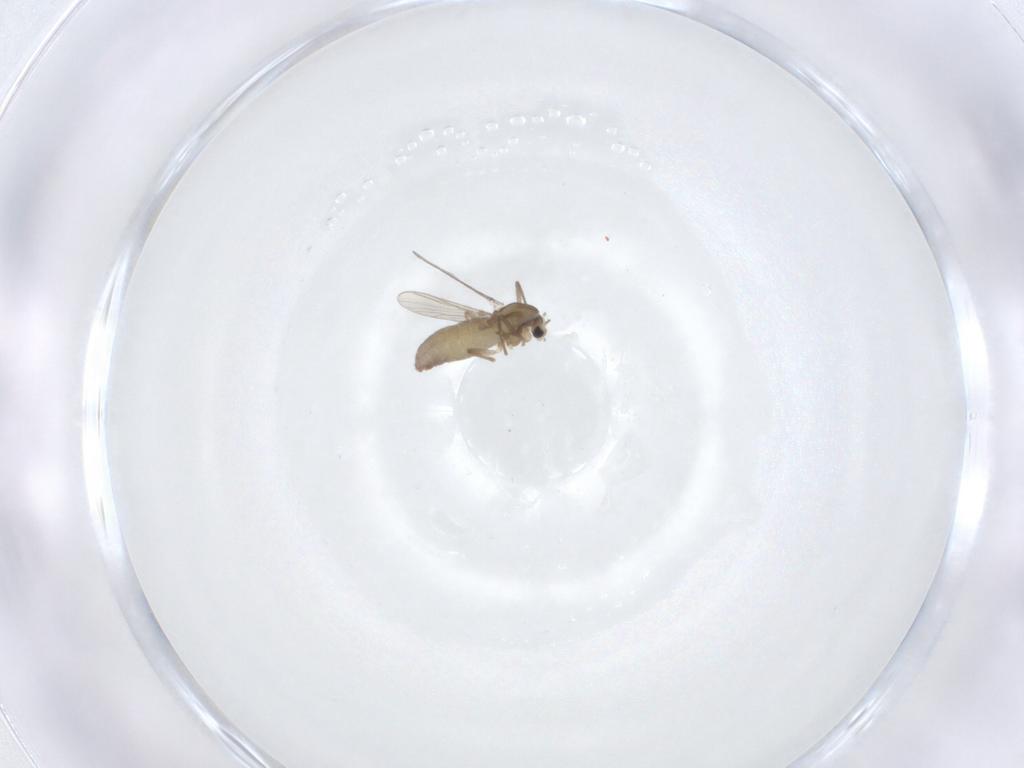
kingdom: Animalia
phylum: Arthropoda
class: Insecta
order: Diptera
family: Chironomidae
